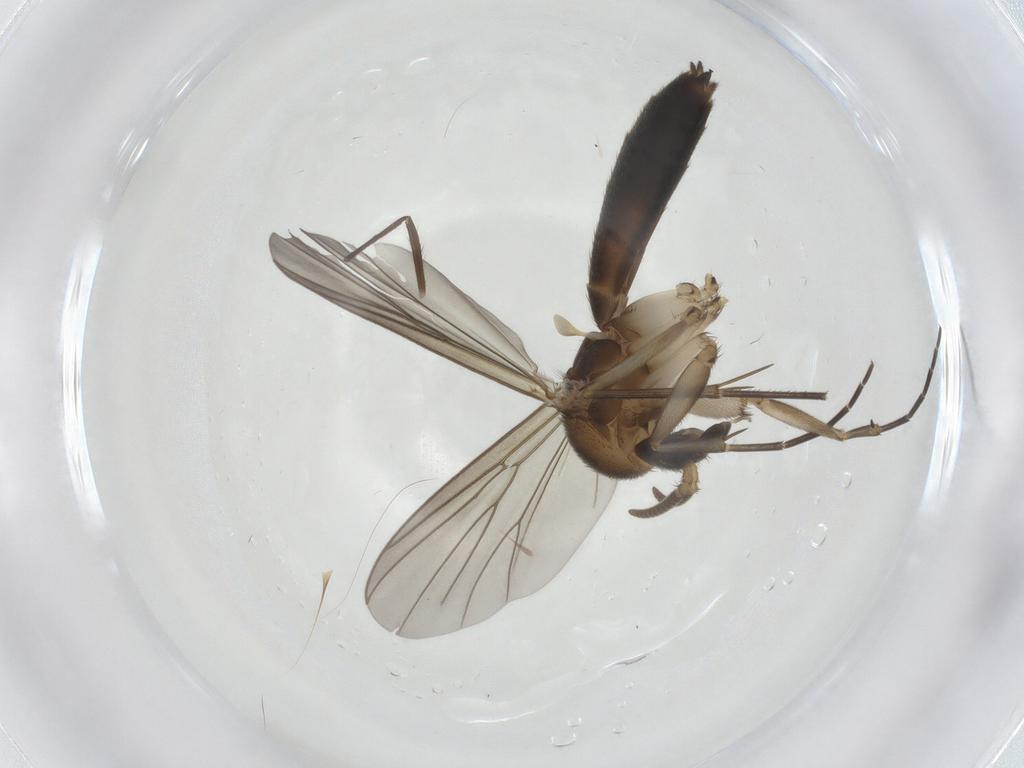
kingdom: Animalia
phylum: Arthropoda
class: Insecta
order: Diptera
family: Mycetophilidae
